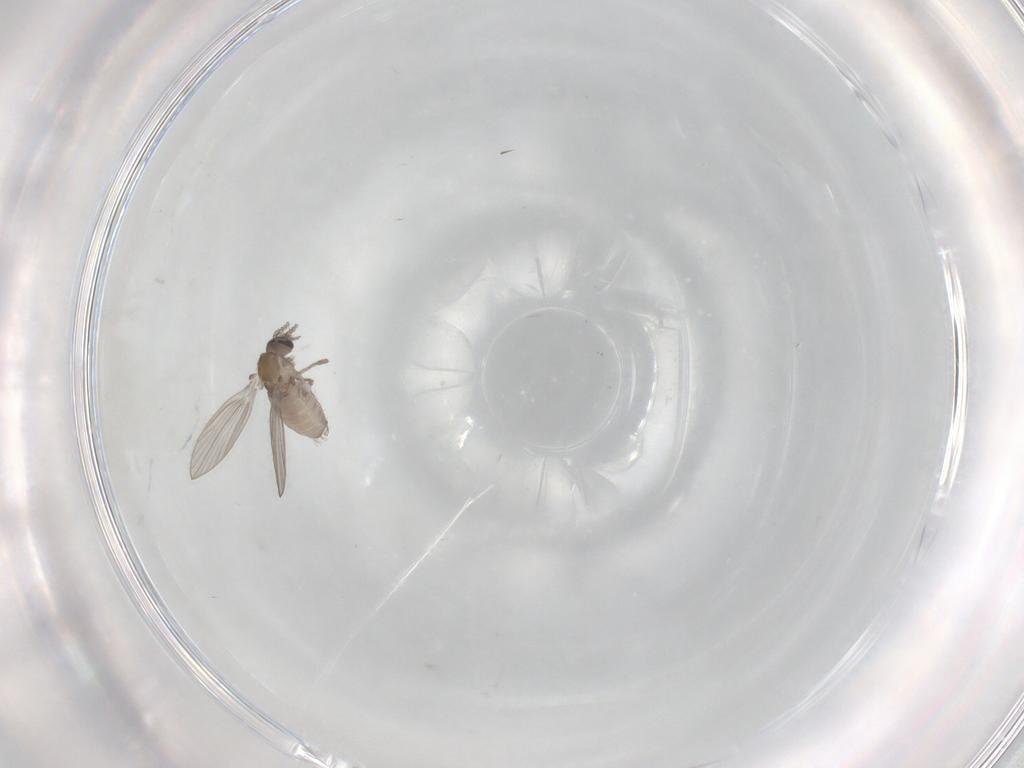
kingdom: Animalia
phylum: Arthropoda
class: Insecta
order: Diptera
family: Psychodidae
